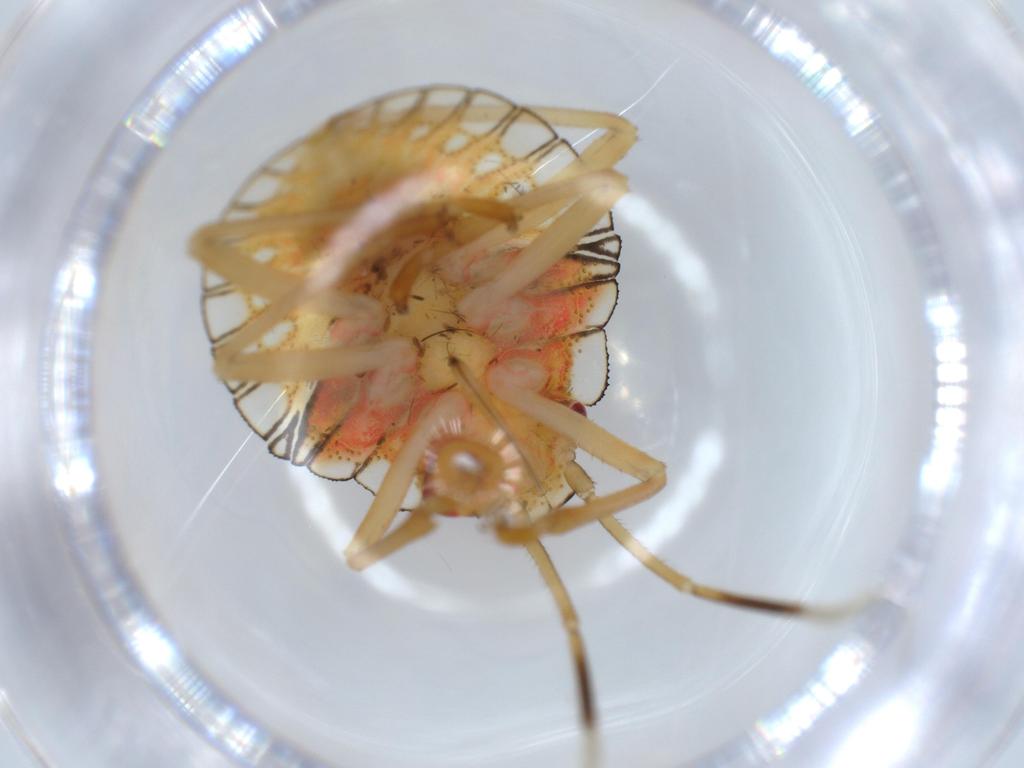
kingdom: Animalia
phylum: Arthropoda
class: Insecta
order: Hemiptera
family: Pentatomidae
